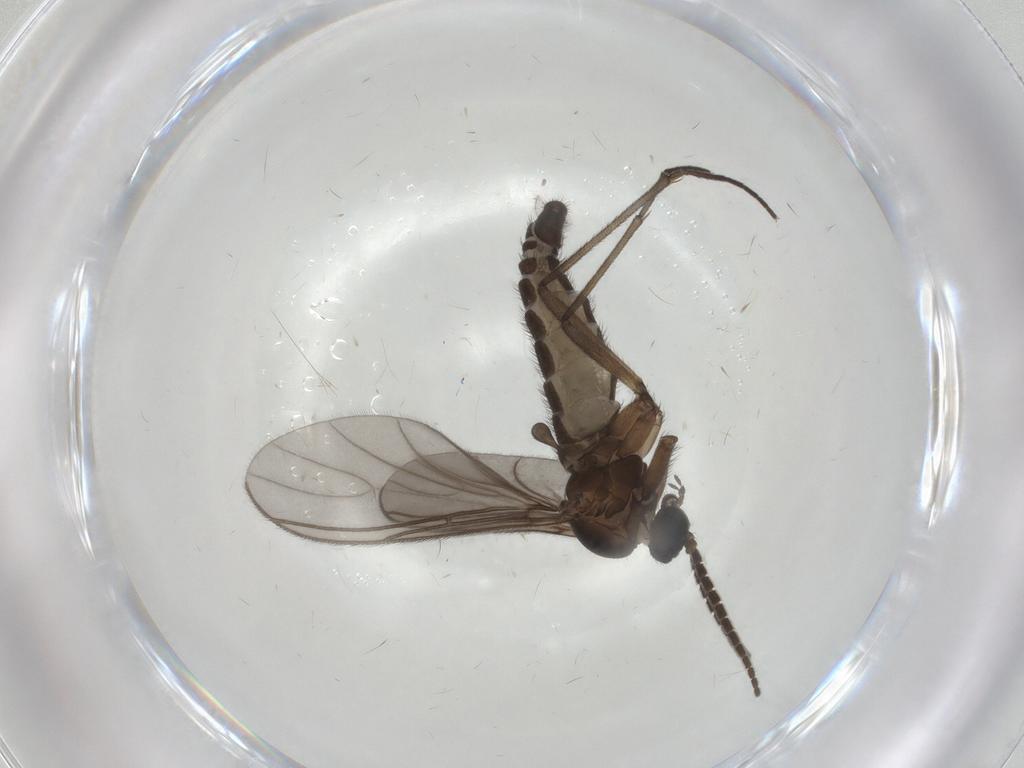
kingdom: Animalia
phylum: Arthropoda
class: Insecta
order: Diptera
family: Sciaridae
